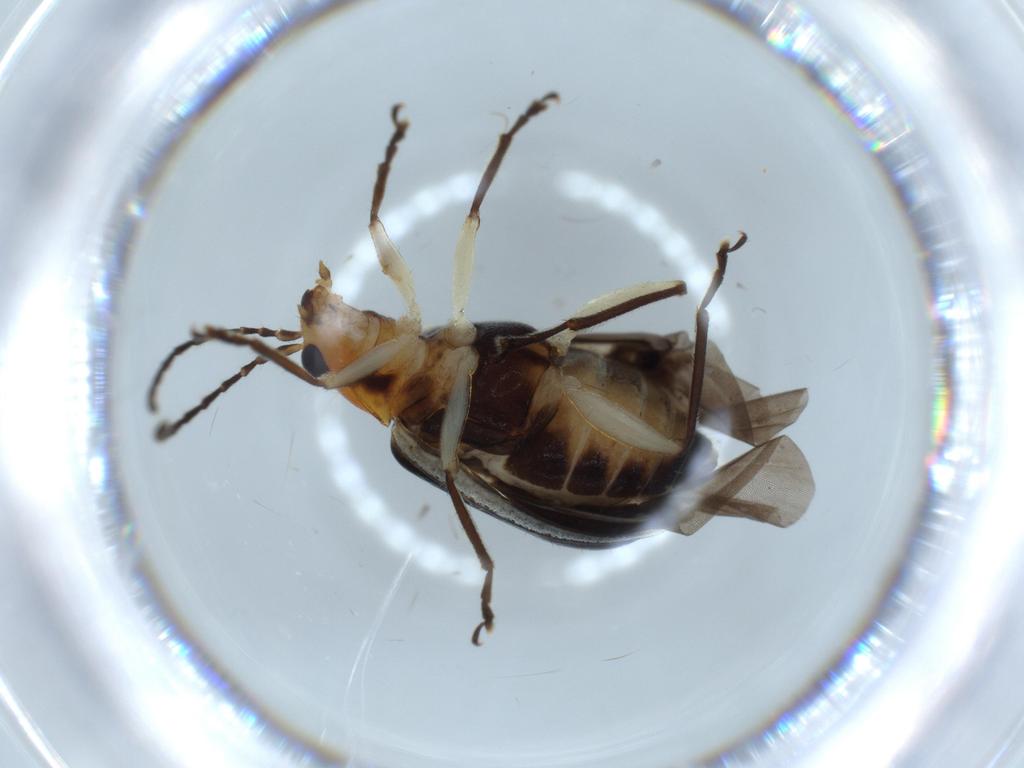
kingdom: Animalia
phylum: Arthropoda
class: Insecta
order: Coleoptera
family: Chrysomelidae
